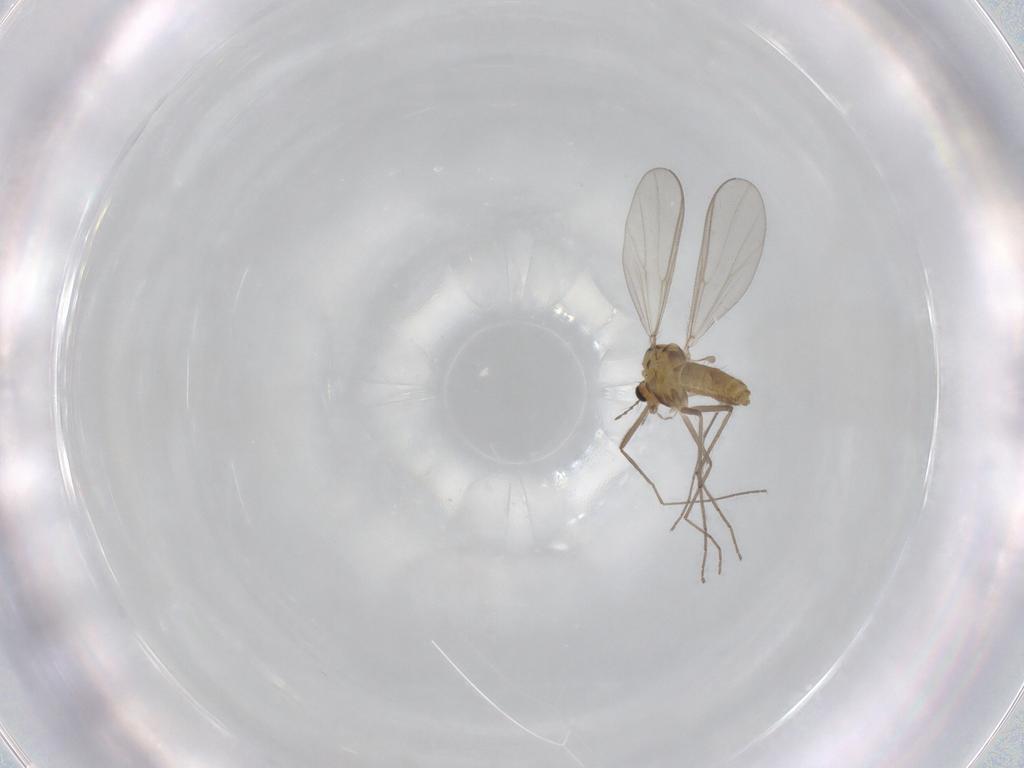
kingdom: Animalia
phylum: Arthropoda
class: Insecta
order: Diptera
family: Chironomidae
